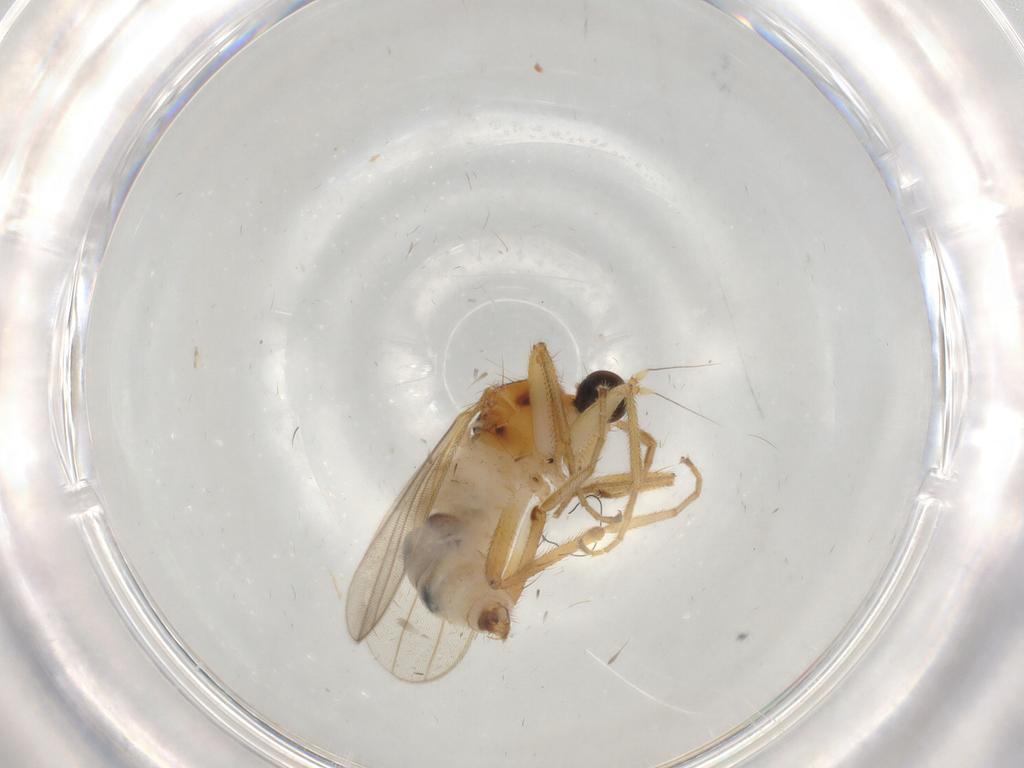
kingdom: Animalia
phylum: Arthropoda
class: Insecta
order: Diptera
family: Hybotidae
